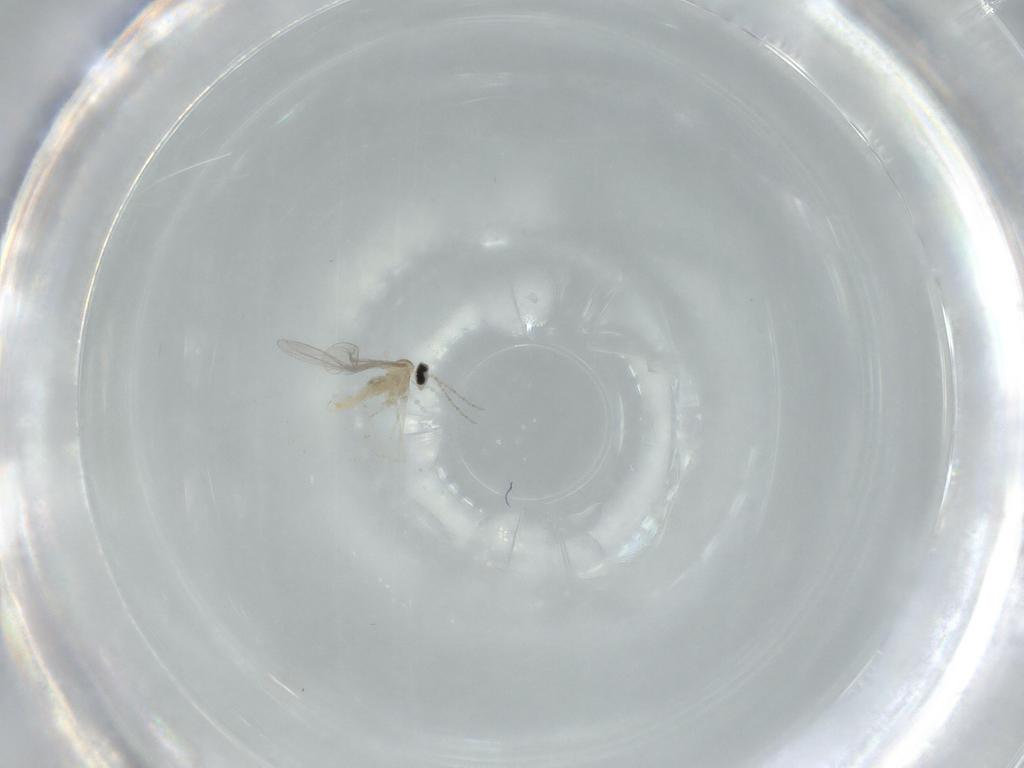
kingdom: Animalia
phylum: Arthropoda
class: Insecta
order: Diptera
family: Cecidomyiidae
